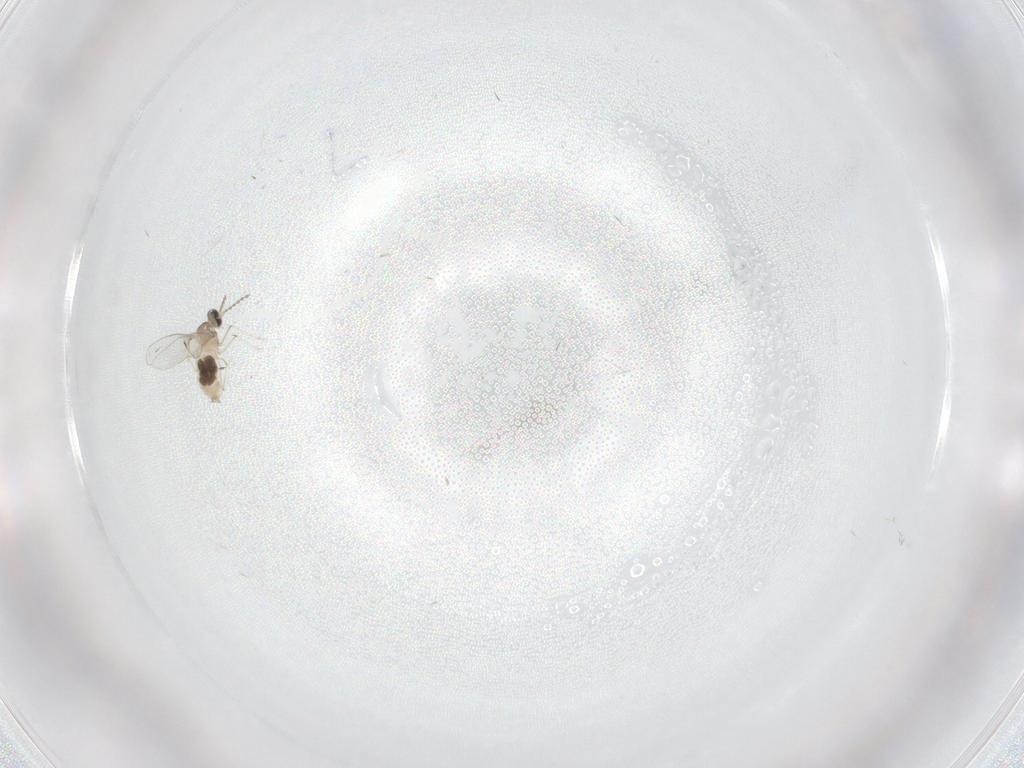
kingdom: Animalia
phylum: Arthropoda
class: Insecta
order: Diptera
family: Cecidomyiidae
